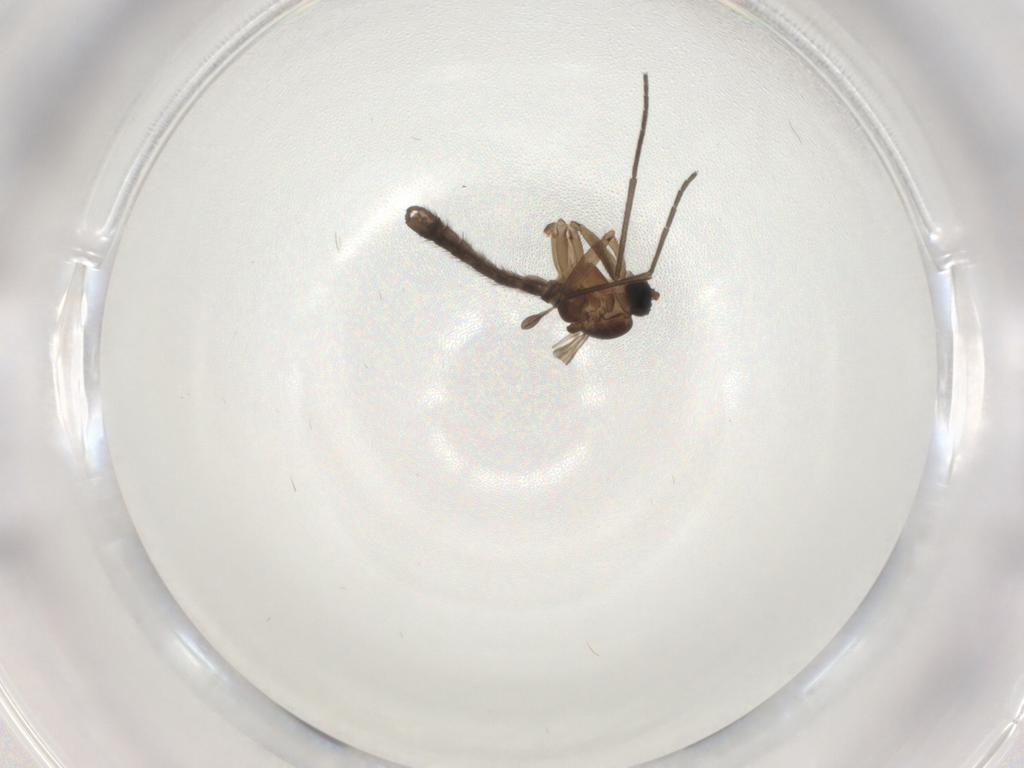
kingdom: Animalia
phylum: Arthropoda
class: Insecta
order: Diptera
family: Sciaridae
